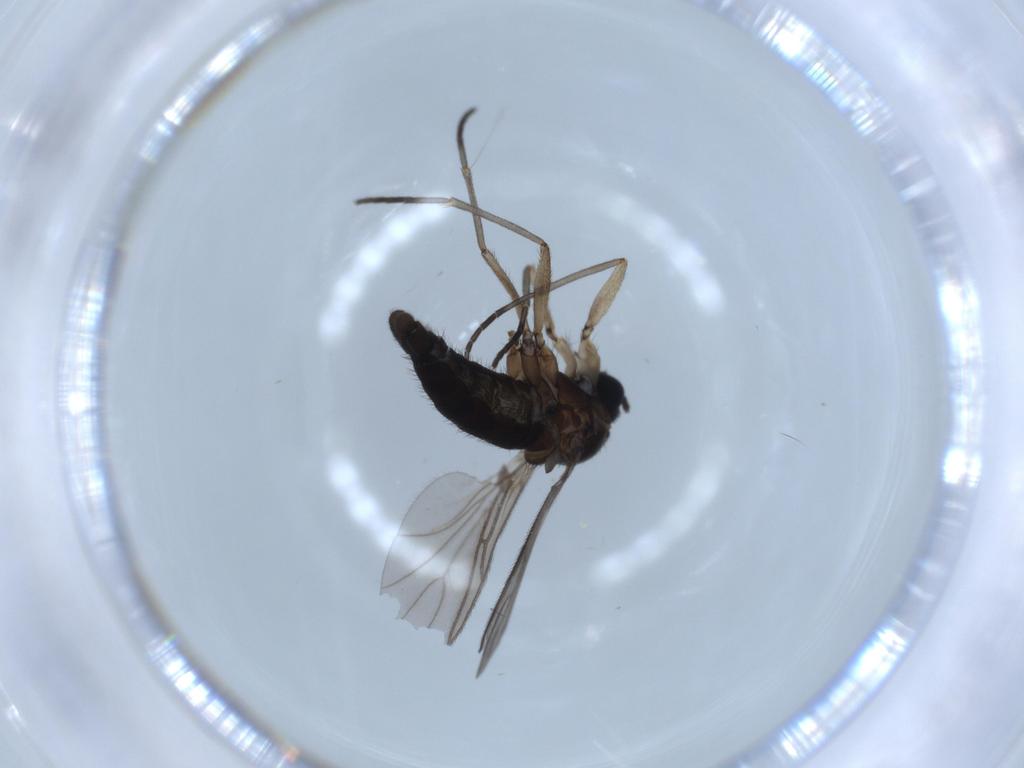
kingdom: Animalia
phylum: Arthropoda
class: Insecta
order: Diptera
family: Sciaridae
